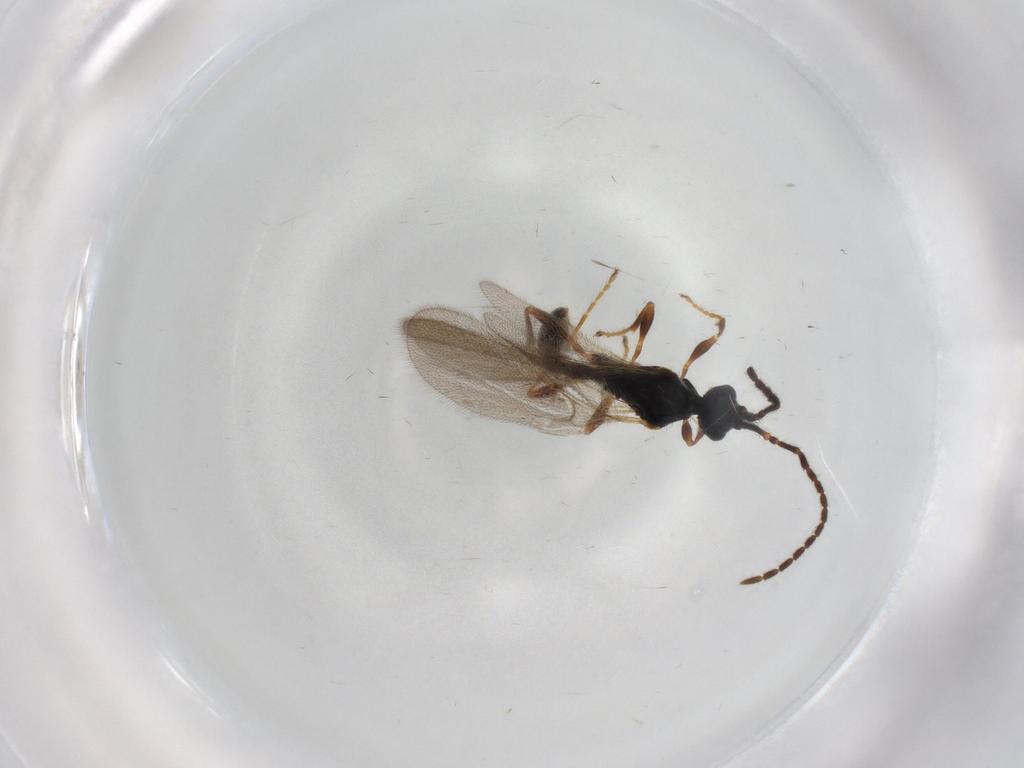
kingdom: Animalia
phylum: Arthropoda
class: Insecta
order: Hymenoptera
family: Diapriidae
